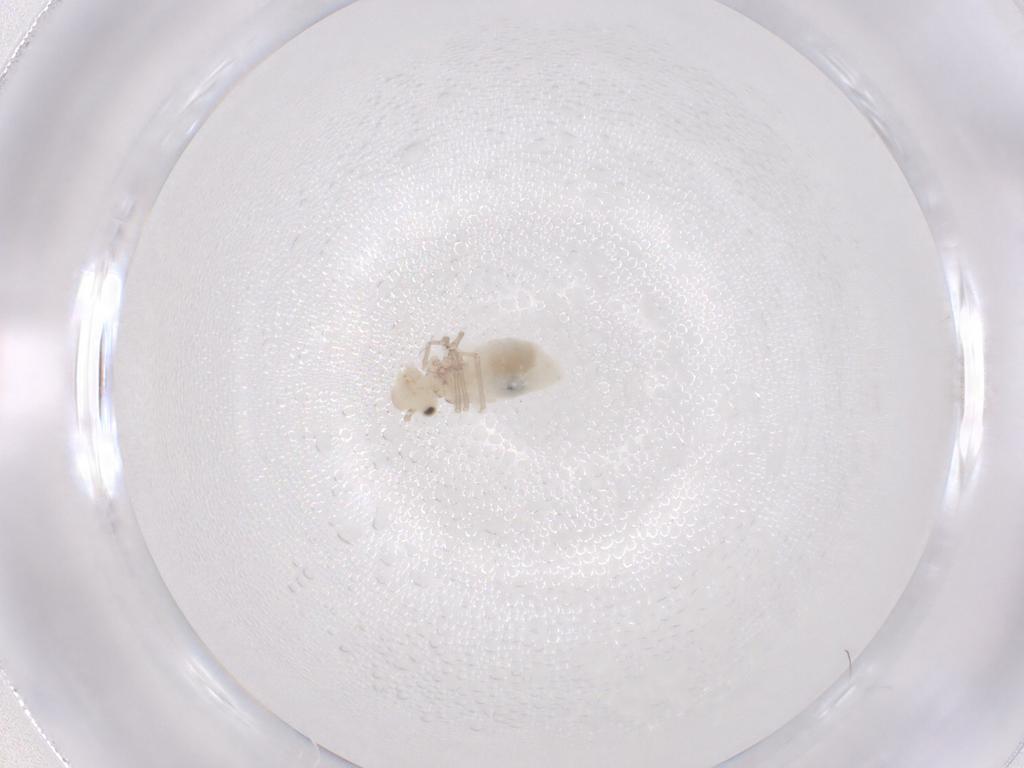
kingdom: Animalia
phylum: Arthropoda
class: Insecta
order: Psocodea
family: Caeciliusidae
